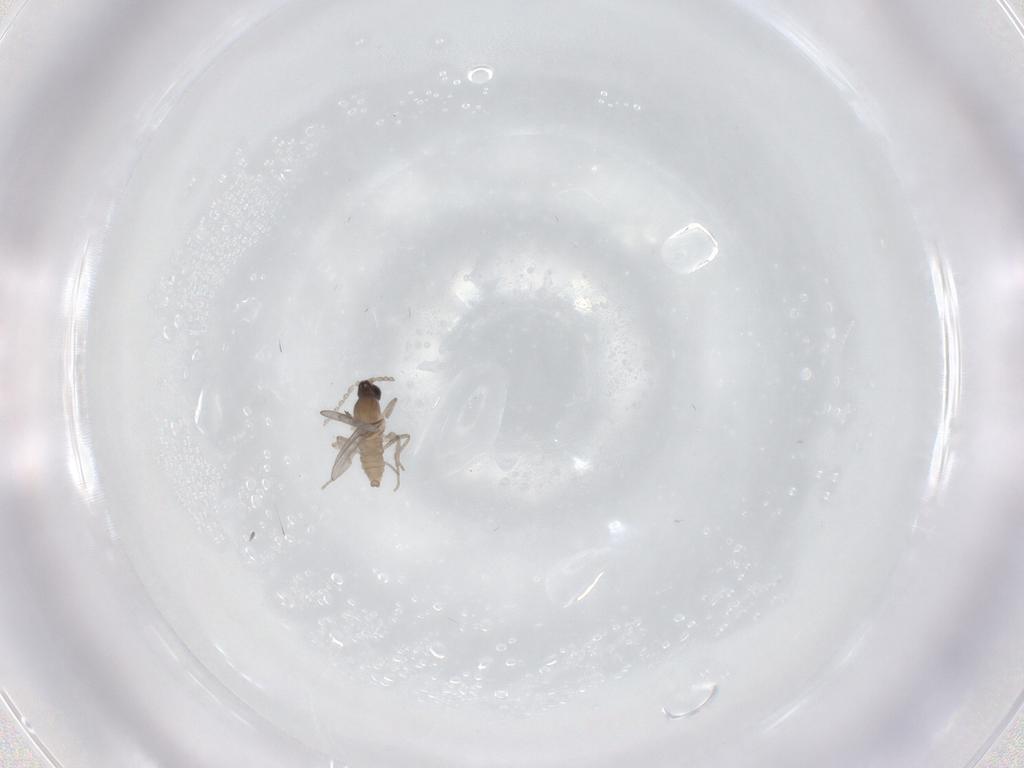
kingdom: Animalia
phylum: Arthropoda
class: Insecta
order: Diptera
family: Cecidomyiidae
